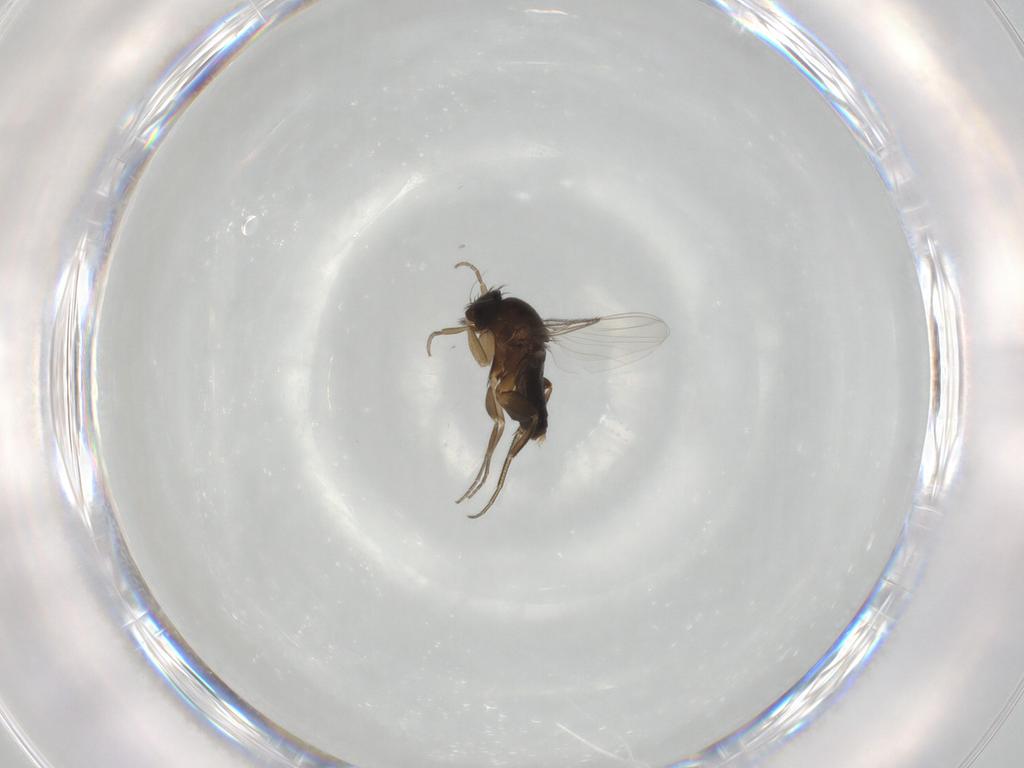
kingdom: Animalia
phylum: Arthropoda
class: Insecta
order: Diptera
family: Phoridae
